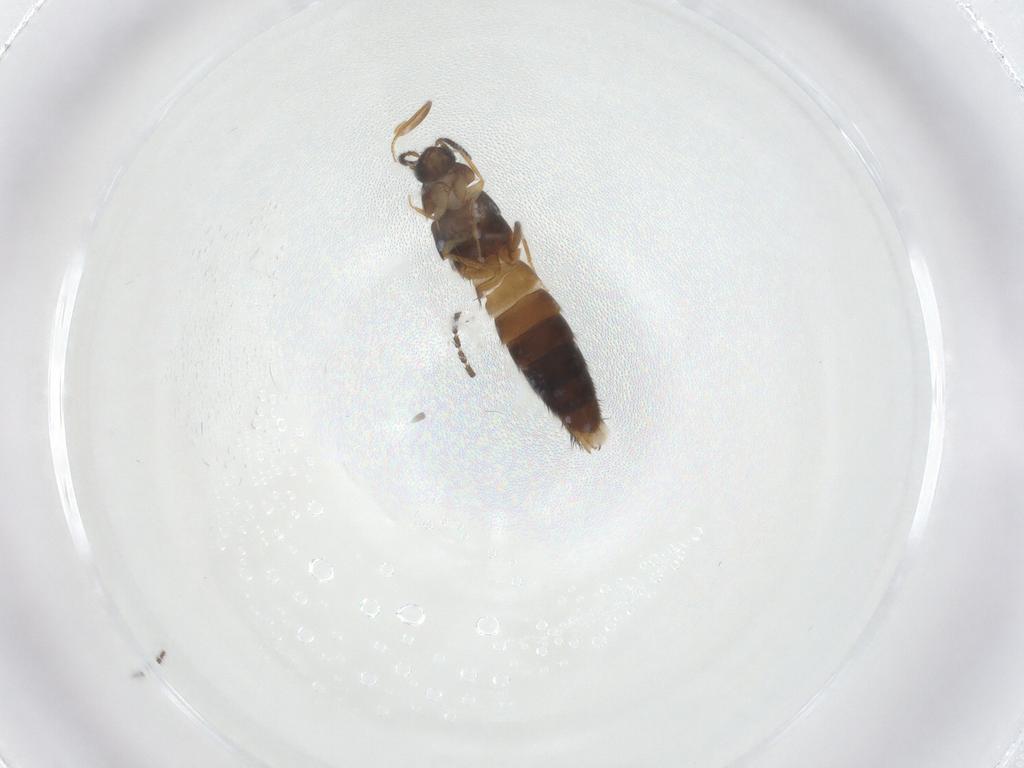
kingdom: Animalia
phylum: Arthropoda
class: Insecta
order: Coleoptera
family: Staphylinidae
